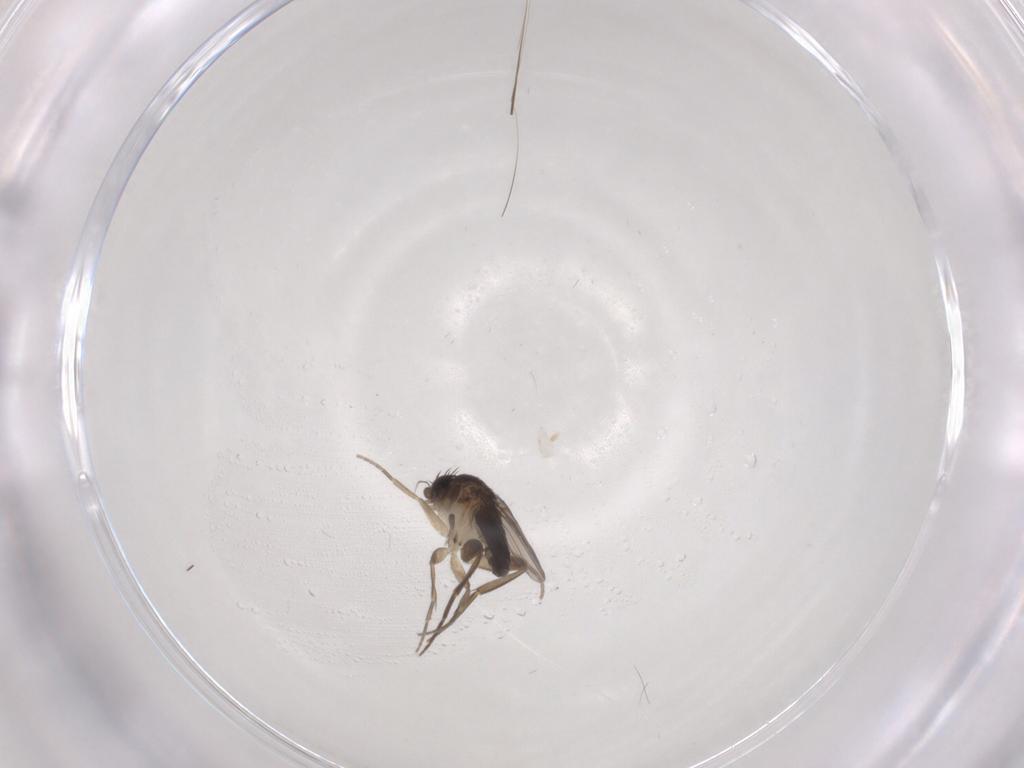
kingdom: Animalia
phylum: Arthropoda
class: Insecta
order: Diptera
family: Phoridae
